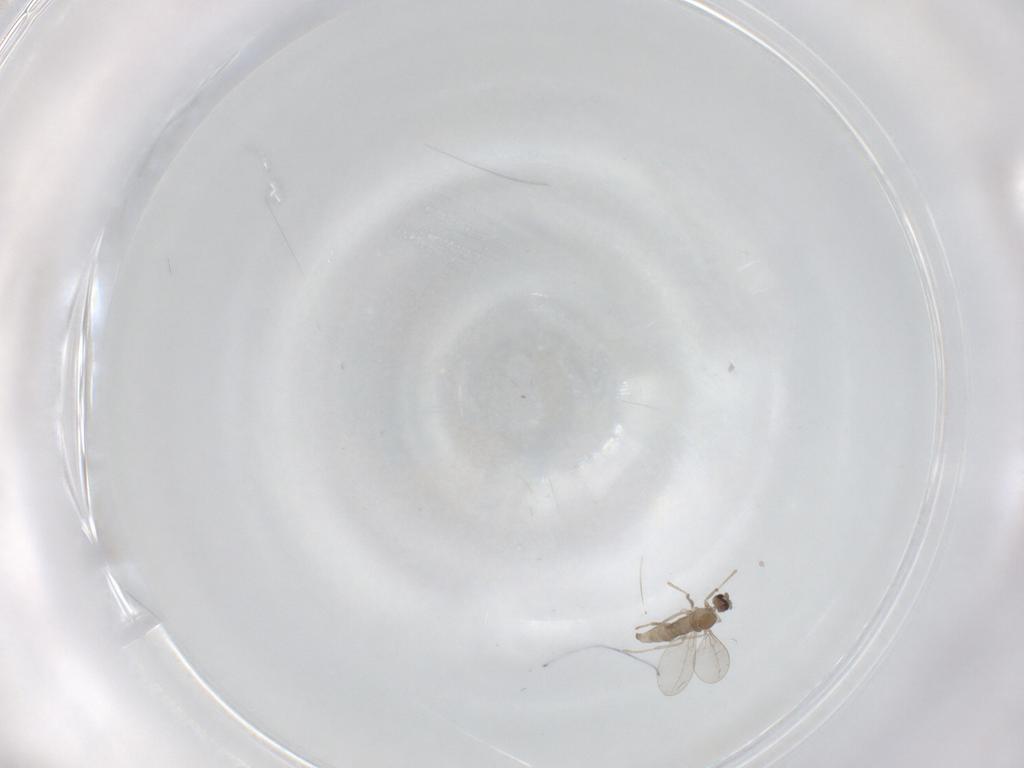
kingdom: Animalia
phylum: Arthropoda
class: Insecta
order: Diptera
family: Cecidomyiidae
